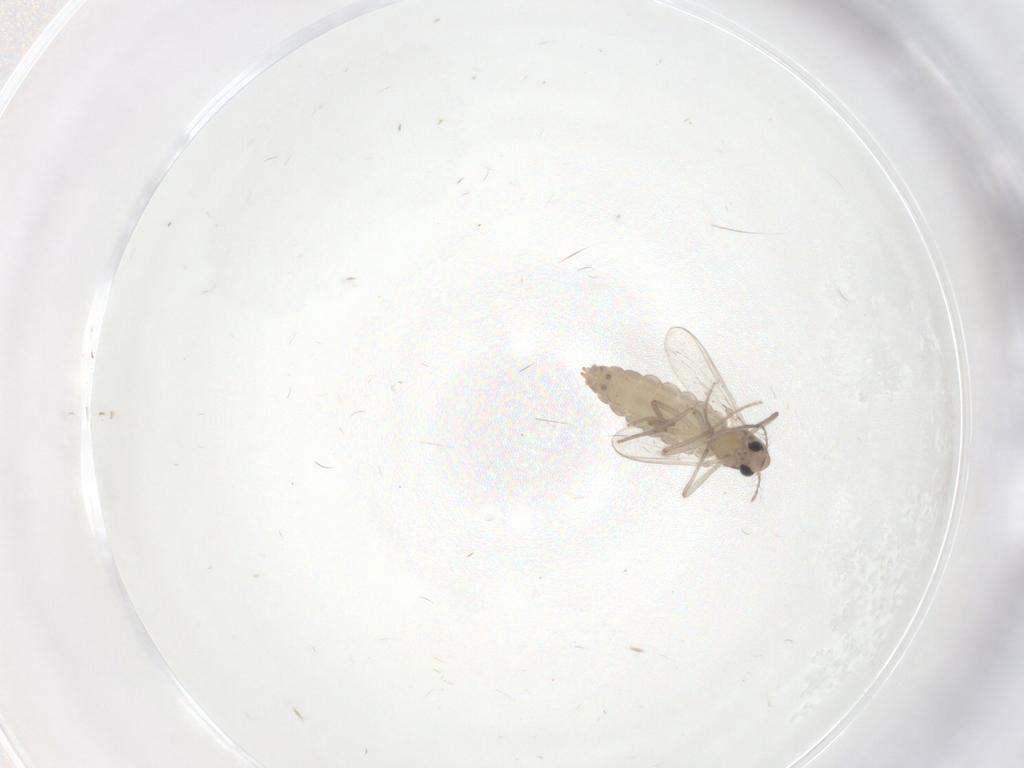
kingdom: Animalia
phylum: Arthropoda
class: Insecta
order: Diptera
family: Chironomidae
